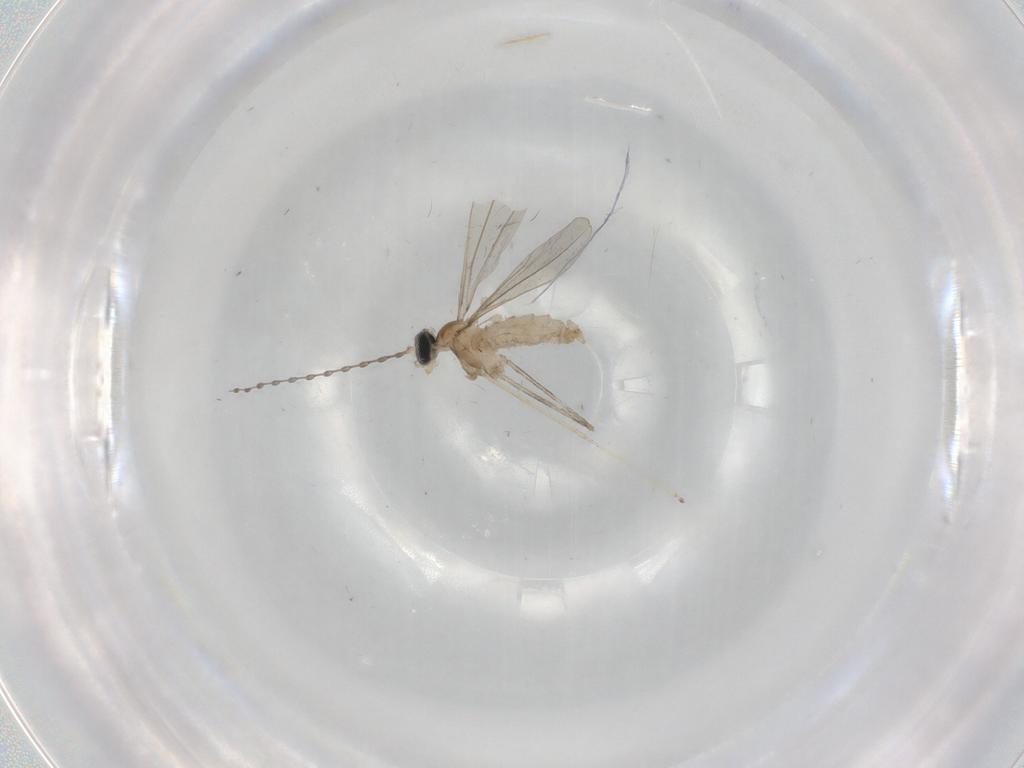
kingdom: Animalia
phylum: Arthropoda
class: Insecta
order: Diptera
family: Cecidomyiidae
